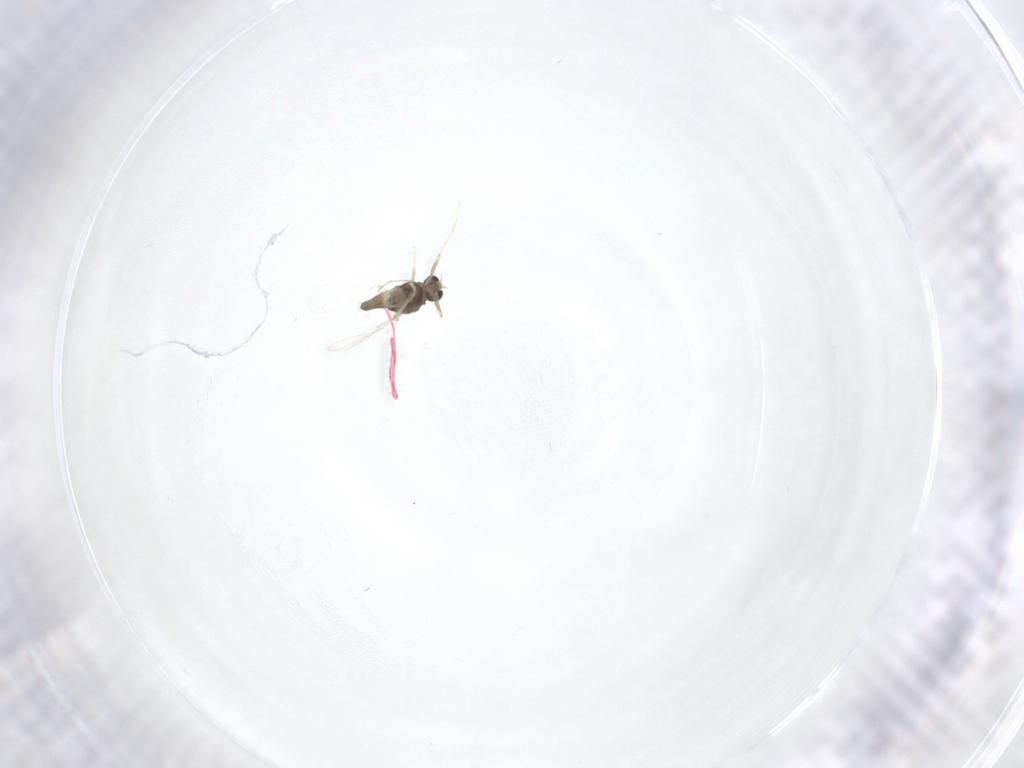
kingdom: Animalia
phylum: Arthropoda
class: Insecta
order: Diptera
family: Chironomidae
